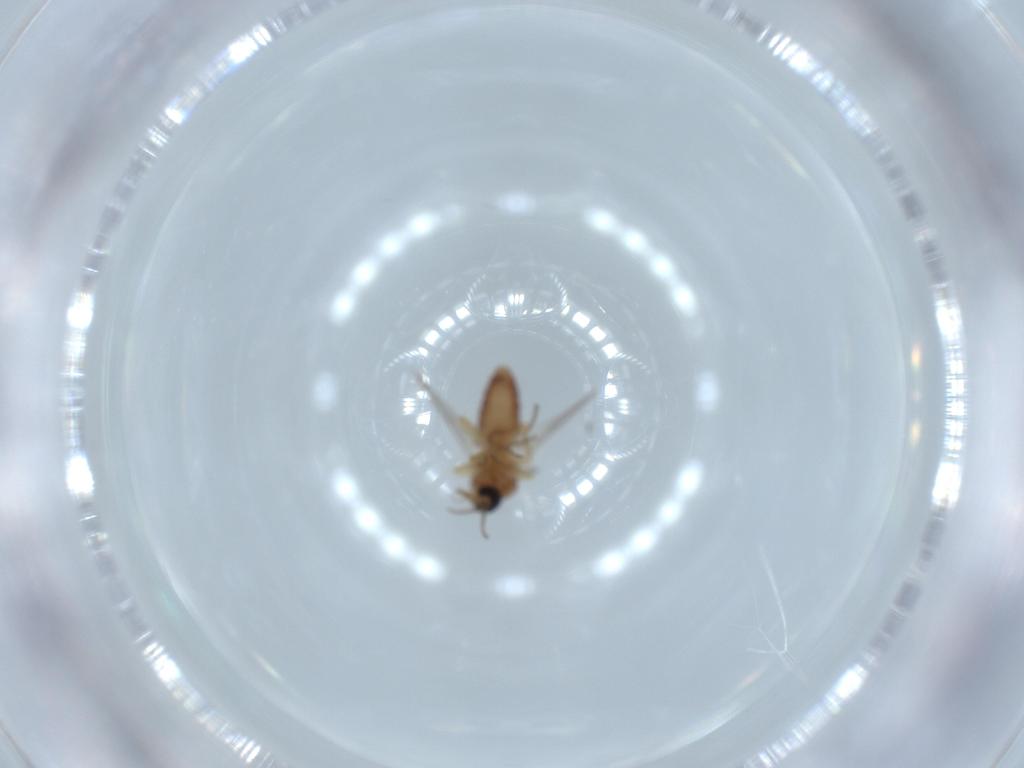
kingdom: Animalia
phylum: Arthropoda
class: Insecta
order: Diptera
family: Ceratopogonidae
